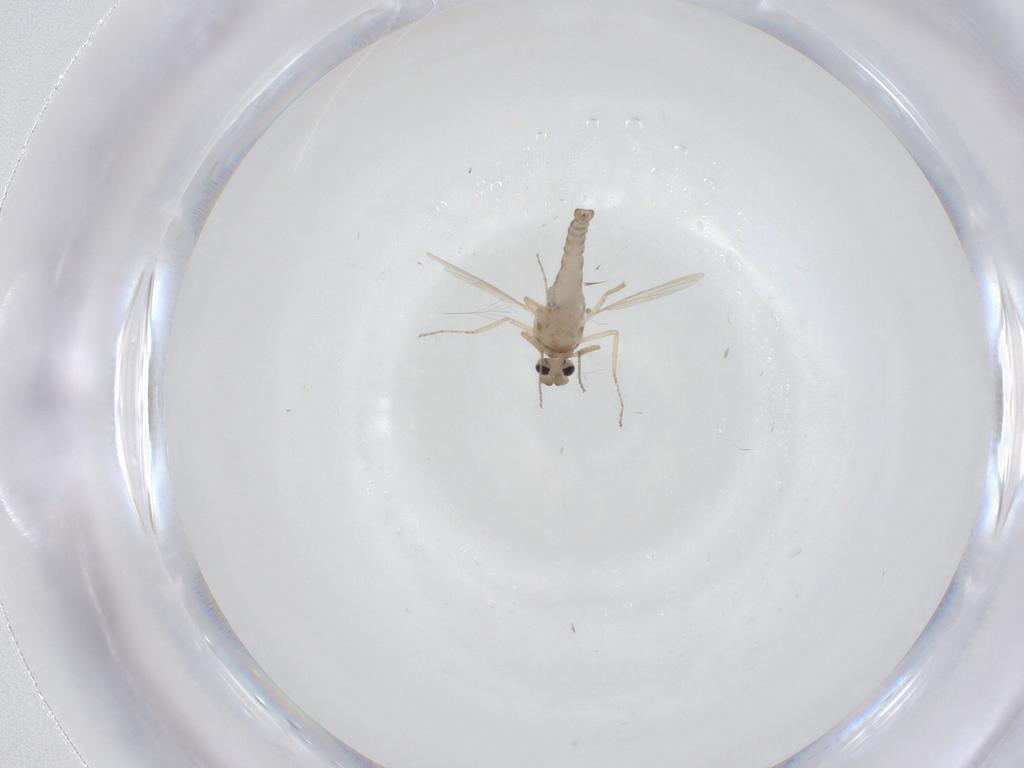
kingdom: Animalia
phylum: Arthropoda
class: Insecta
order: Diptera
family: Ceratopogonidae
